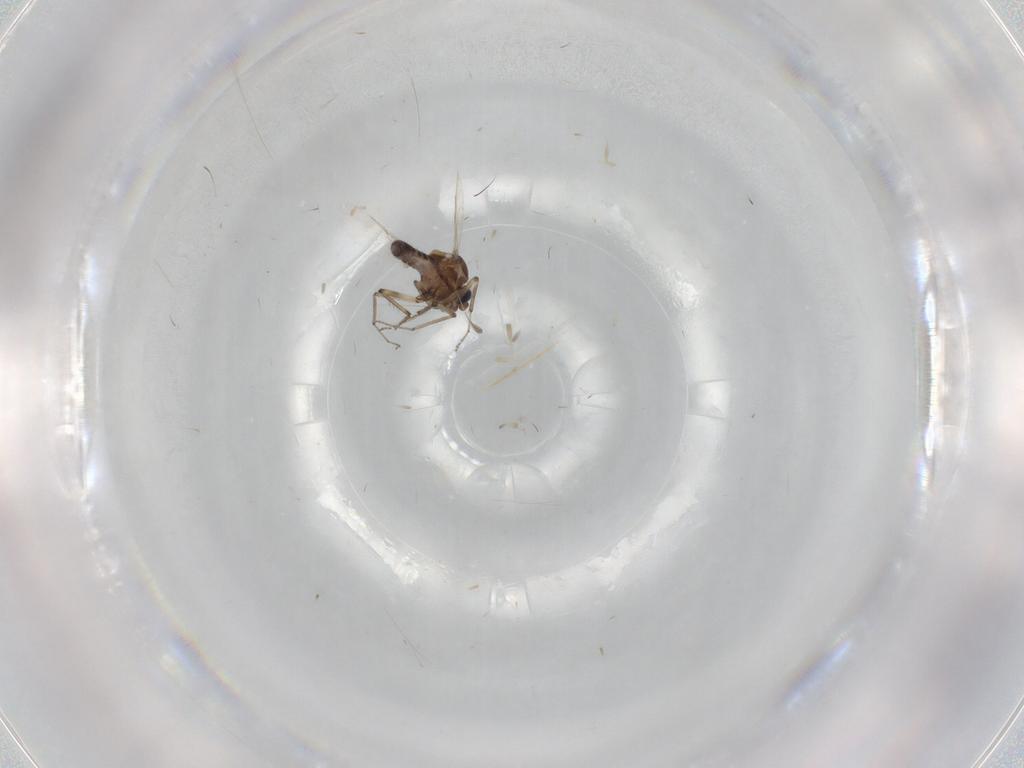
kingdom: Animalia
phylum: Arthropoda
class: Insecta
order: Diptera
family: Ceratopogonidae
